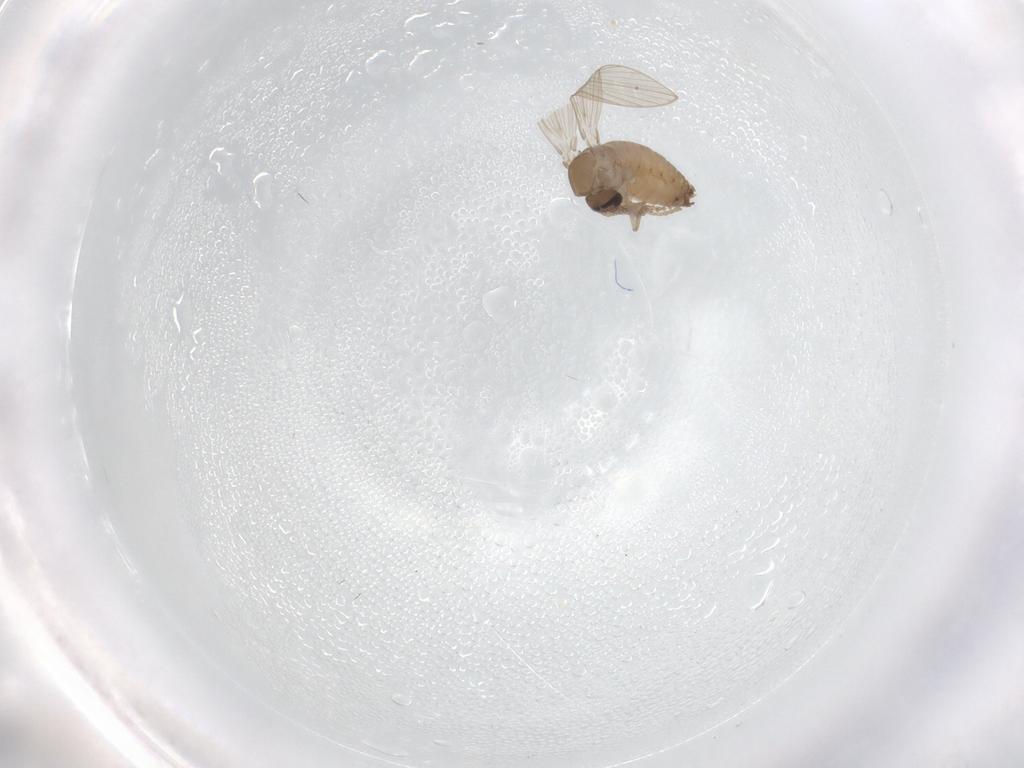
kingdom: Animalia
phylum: Arthropoda
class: Insecta
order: Diptera
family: Psychodidae
